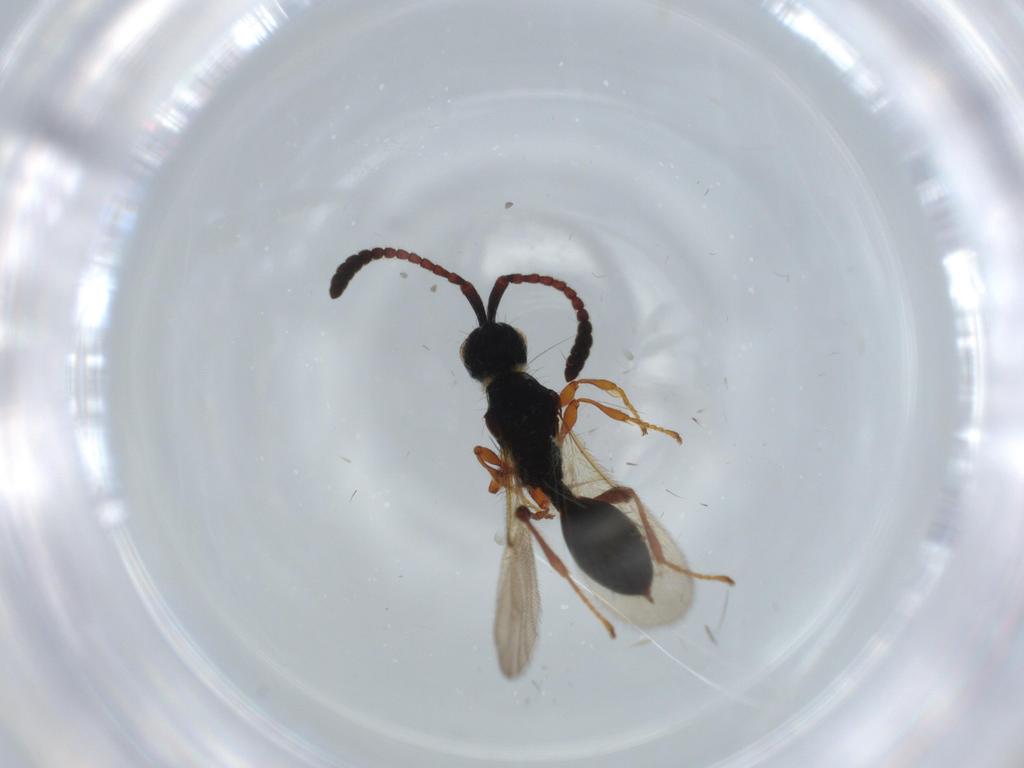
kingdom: Animalia
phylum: Arthropoda
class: Insecta
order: Hymenoptera
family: Diapriidae
